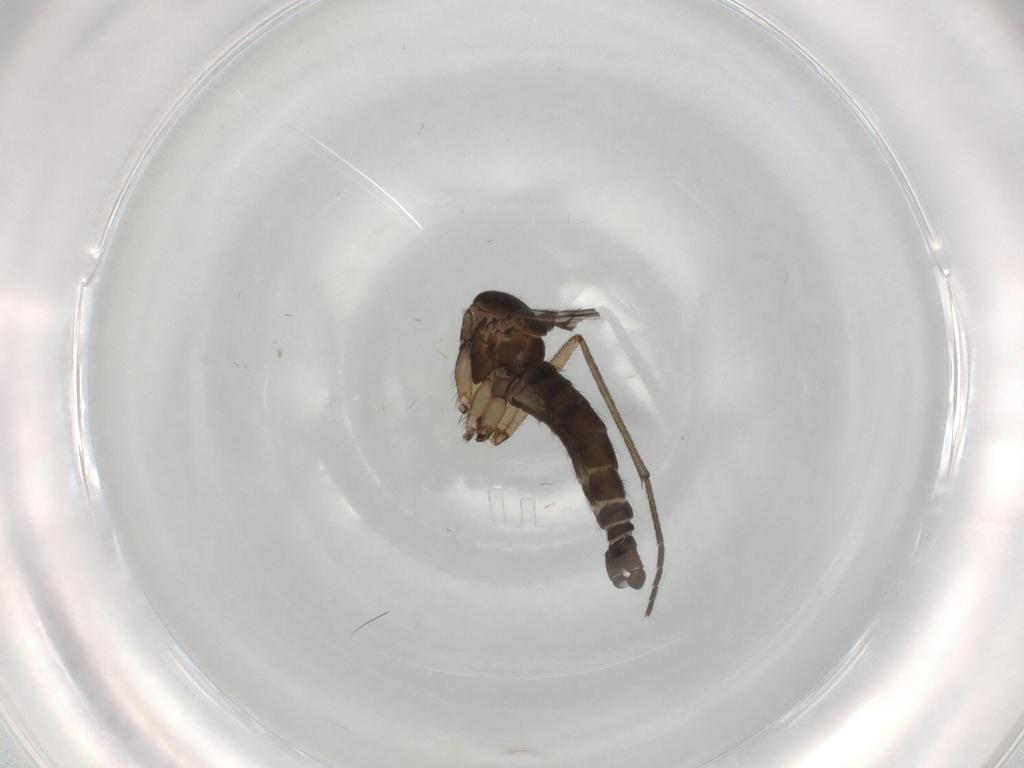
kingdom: Animalia
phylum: Arthropoda
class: Insecta
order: Diptera
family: Sciaridae
